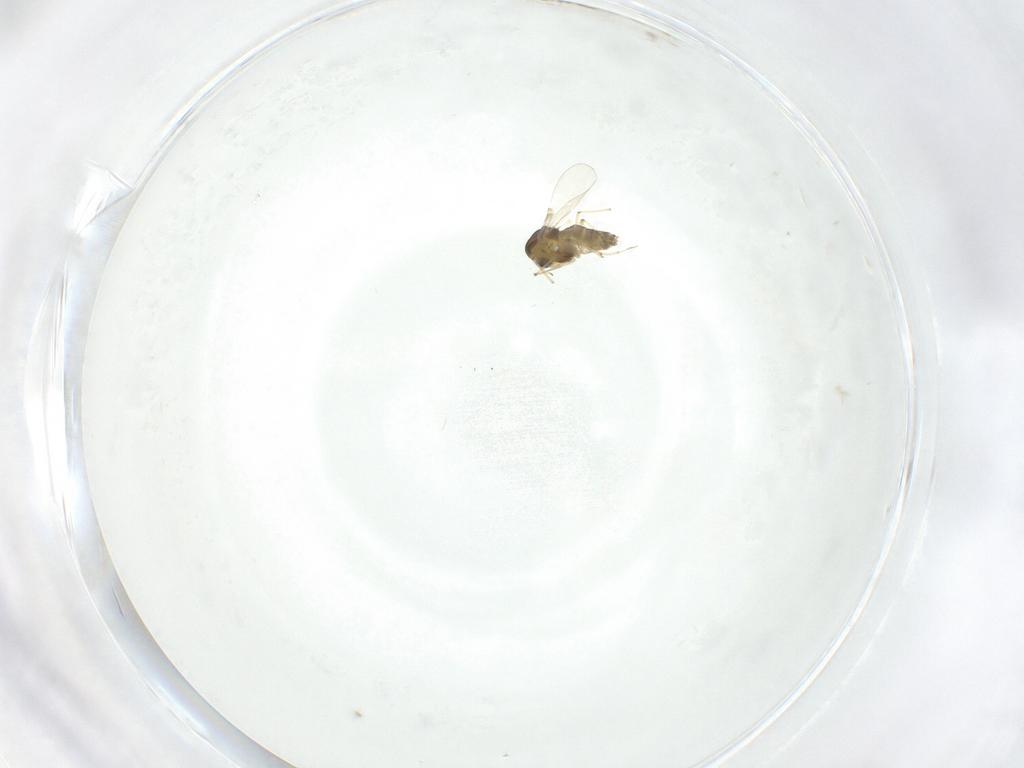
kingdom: Animalia
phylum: Arthropoda
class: Insecta
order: Diptera
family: Chironomidae
